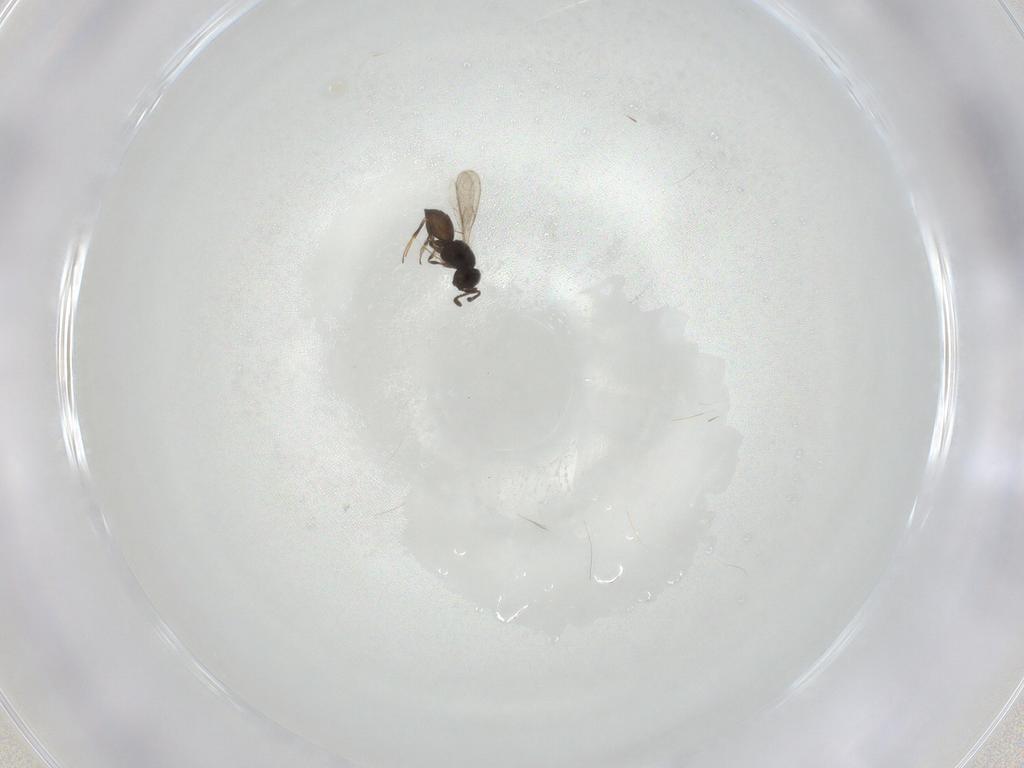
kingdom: Animalia
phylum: Arthropoda
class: Insecta
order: Hymenoptera
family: Scelionidae
